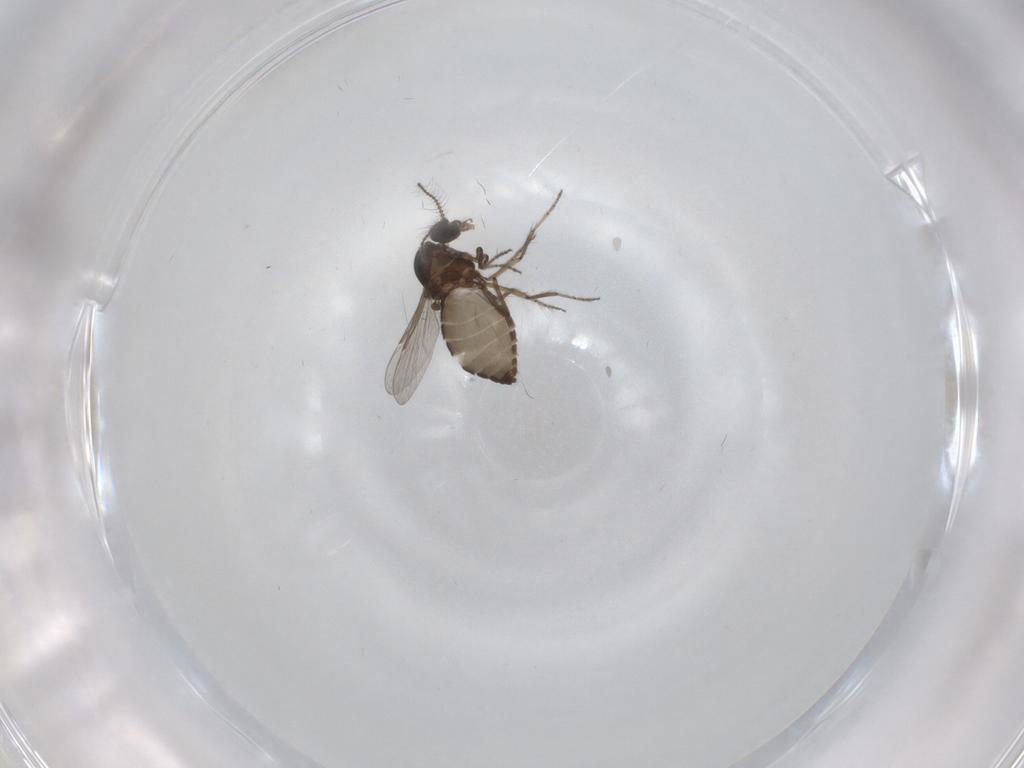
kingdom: Animalia
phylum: Arthropoda
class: Insecta
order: Diptera
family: Ceratopogonidae
